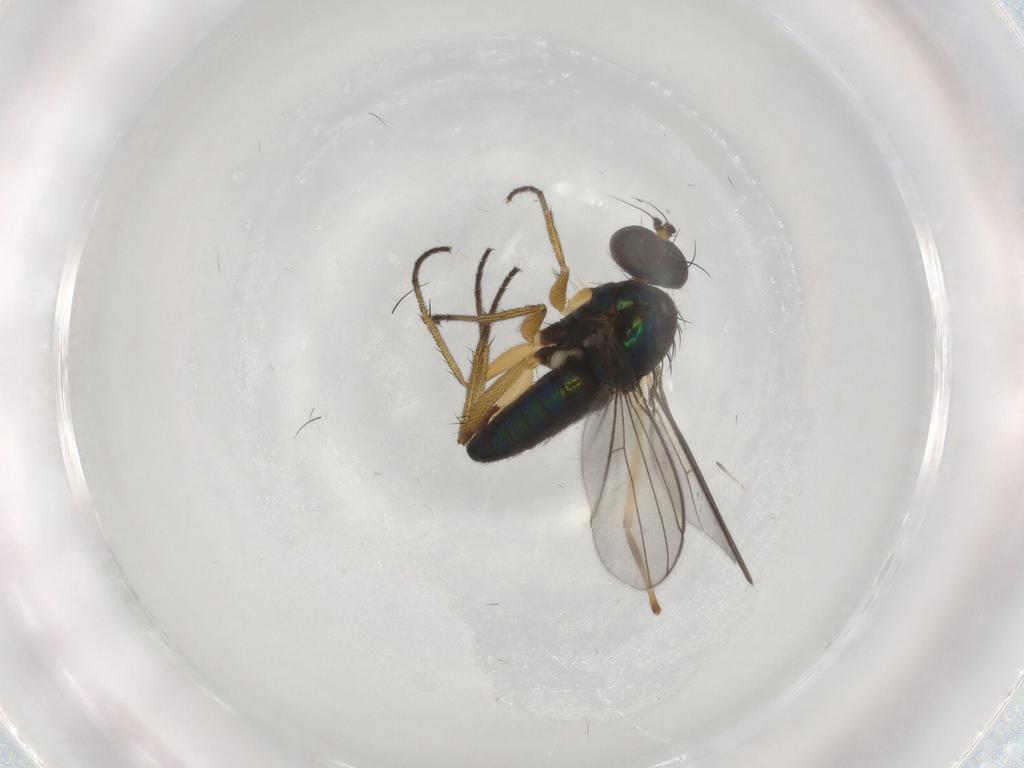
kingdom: Animalia
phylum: Arthropoda
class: Insecta
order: Diptera
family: Dolichopodidae
